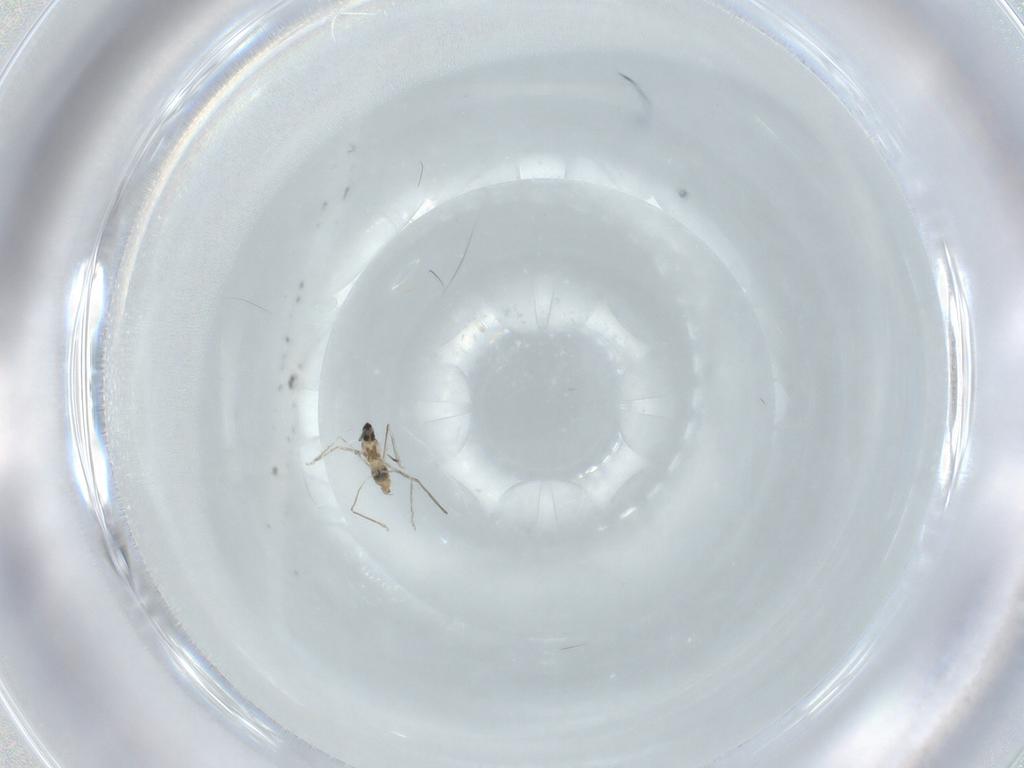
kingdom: Animalia
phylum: Arthropoda
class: Insecta
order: Diptera
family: Cecidomyiidae
